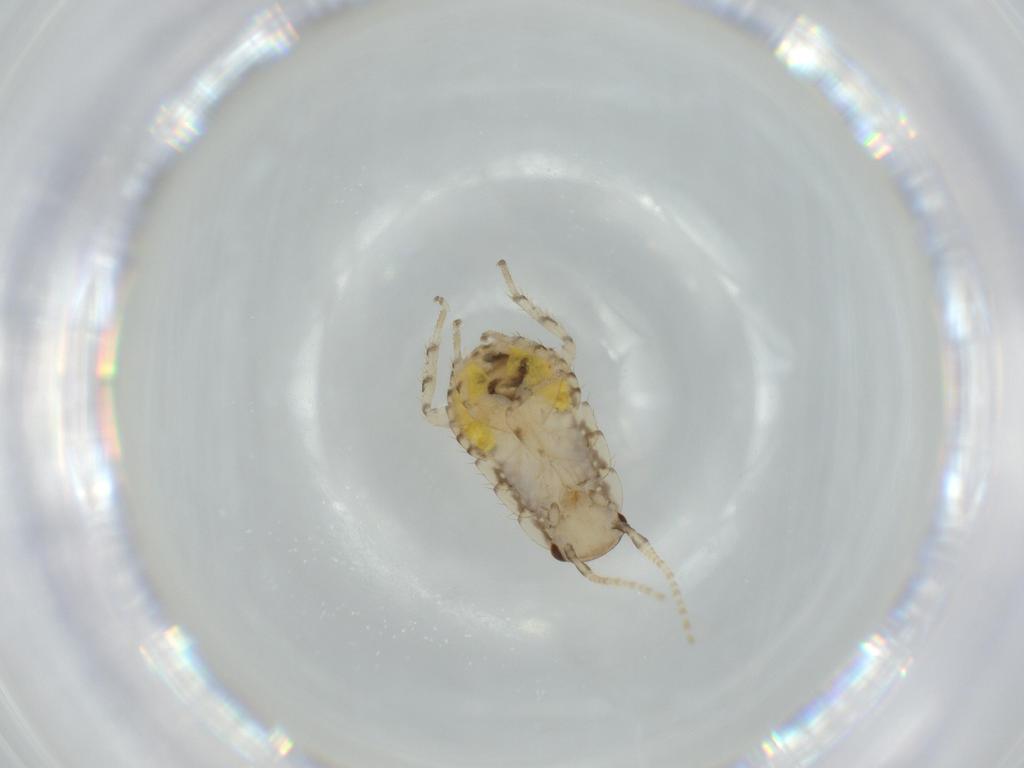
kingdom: Animalia
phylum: Arthropoda
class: Insecta
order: Blattodea
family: Ectobiidae
